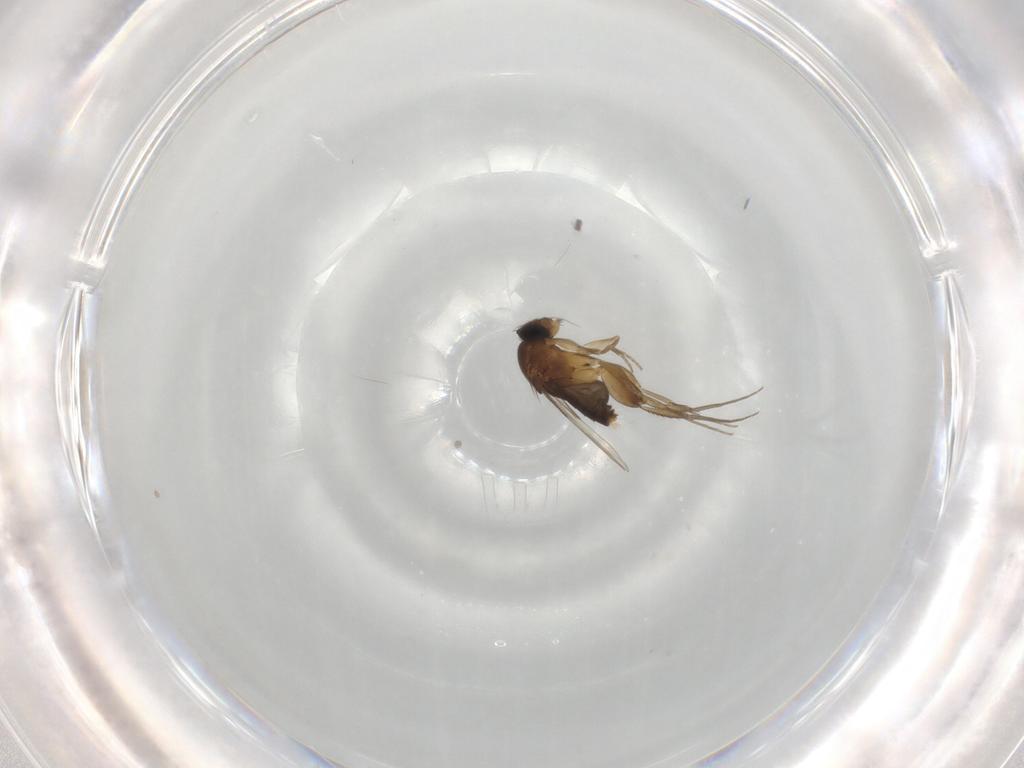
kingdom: Animalia
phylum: Arthropoda
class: Insecta
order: Diptera
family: Phoridae
